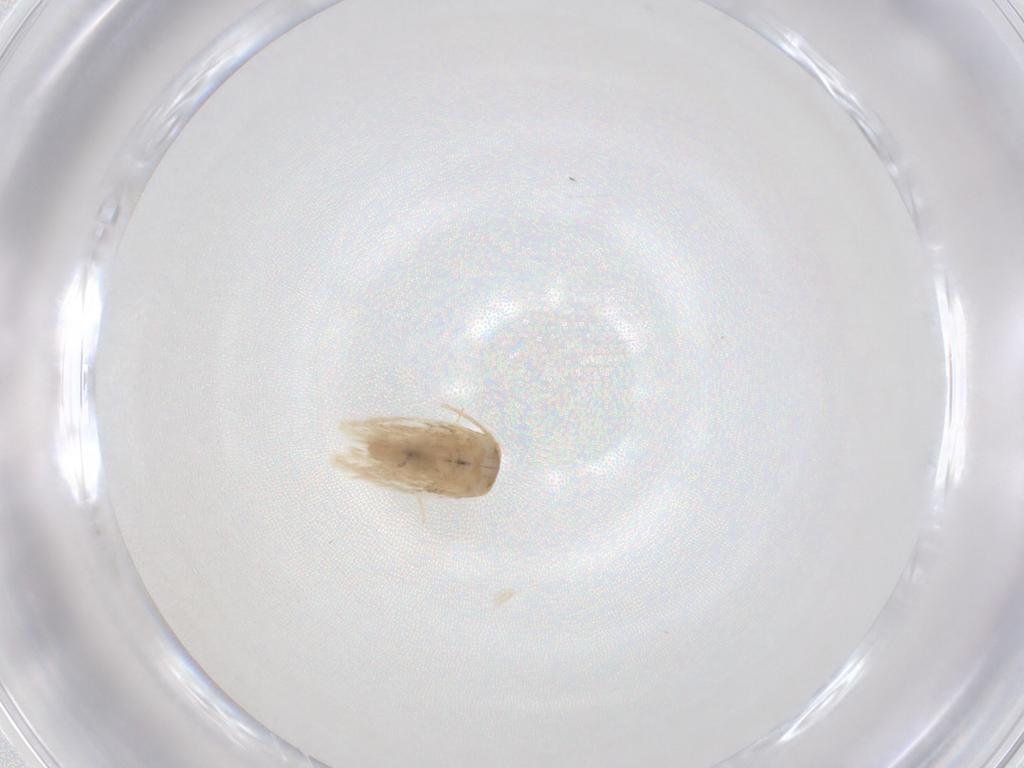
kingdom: Animalia
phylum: Arthropoda
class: Insecta
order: Lepidoptera
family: Nepticulidae
